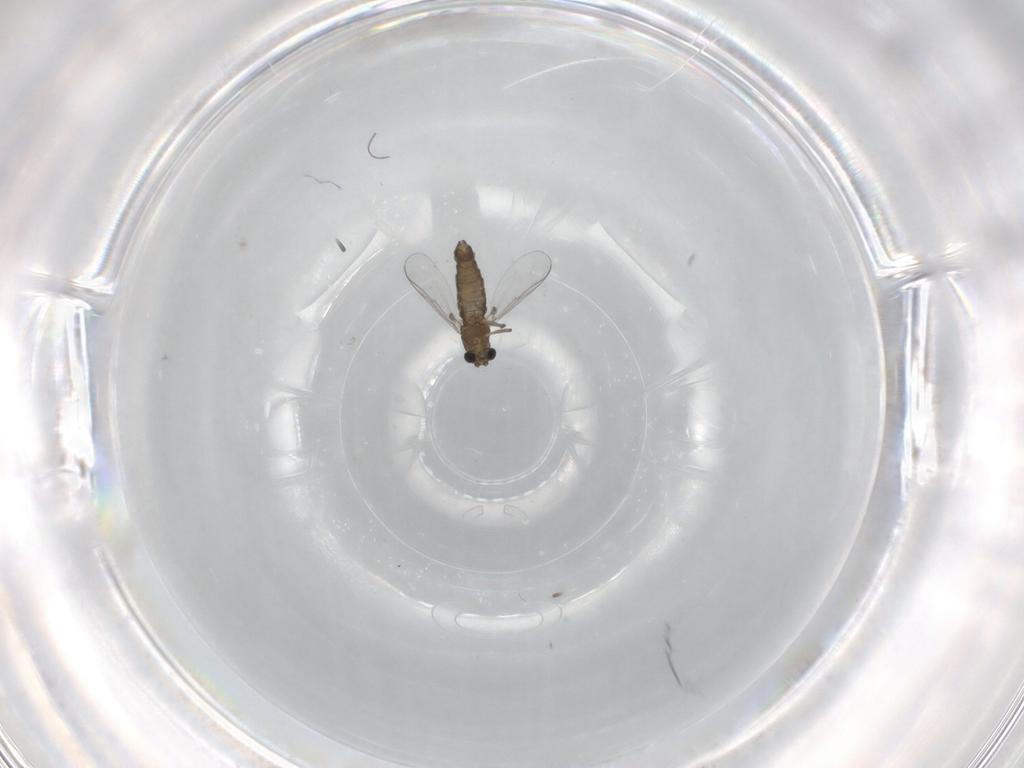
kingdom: Animalia
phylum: Arthropoda
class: Insecta
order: Diptera
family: Chironomidae
